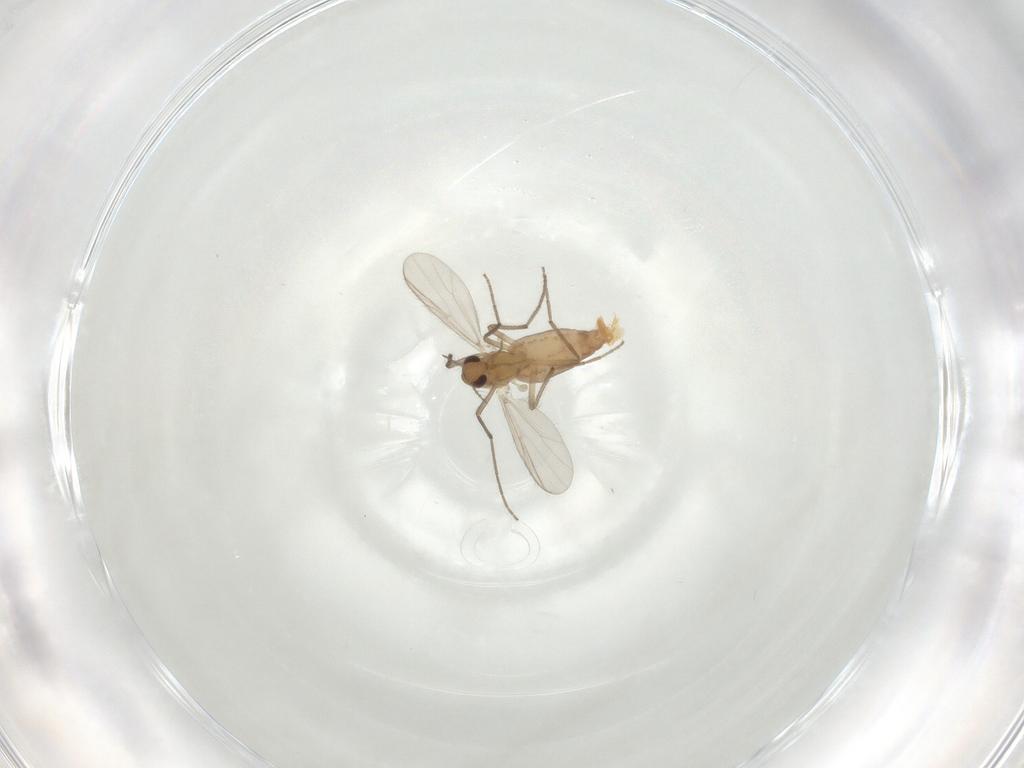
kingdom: Animalia
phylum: Arthropoda
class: Insecta
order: Diptera
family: Chironomidae
